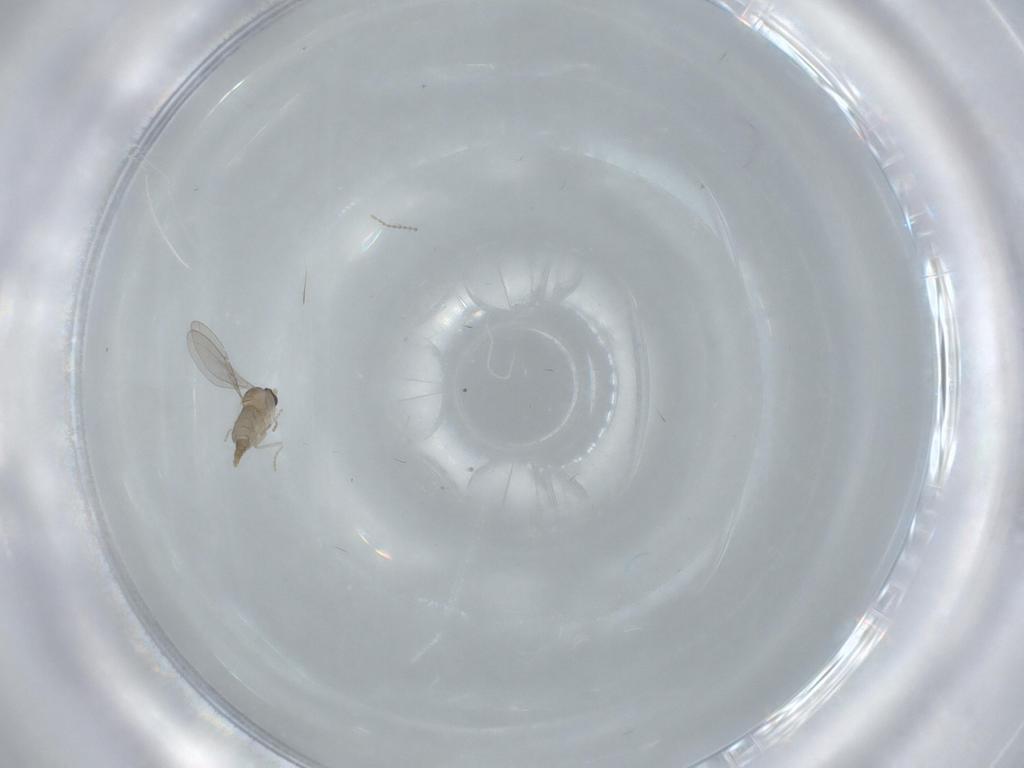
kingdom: Animalia
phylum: Arthropoda
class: Insecta
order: Diptera
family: Cecidomyiidae
